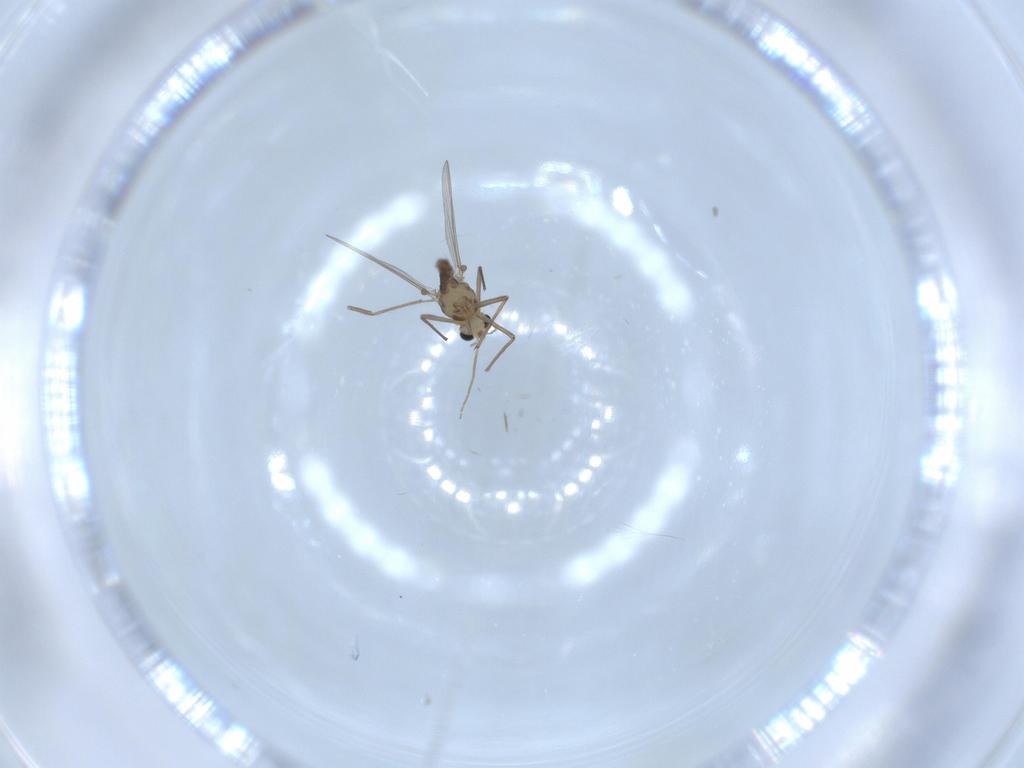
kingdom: Animalia
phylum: Arthropoda
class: Insecta
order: Diptera
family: Chironomidae
